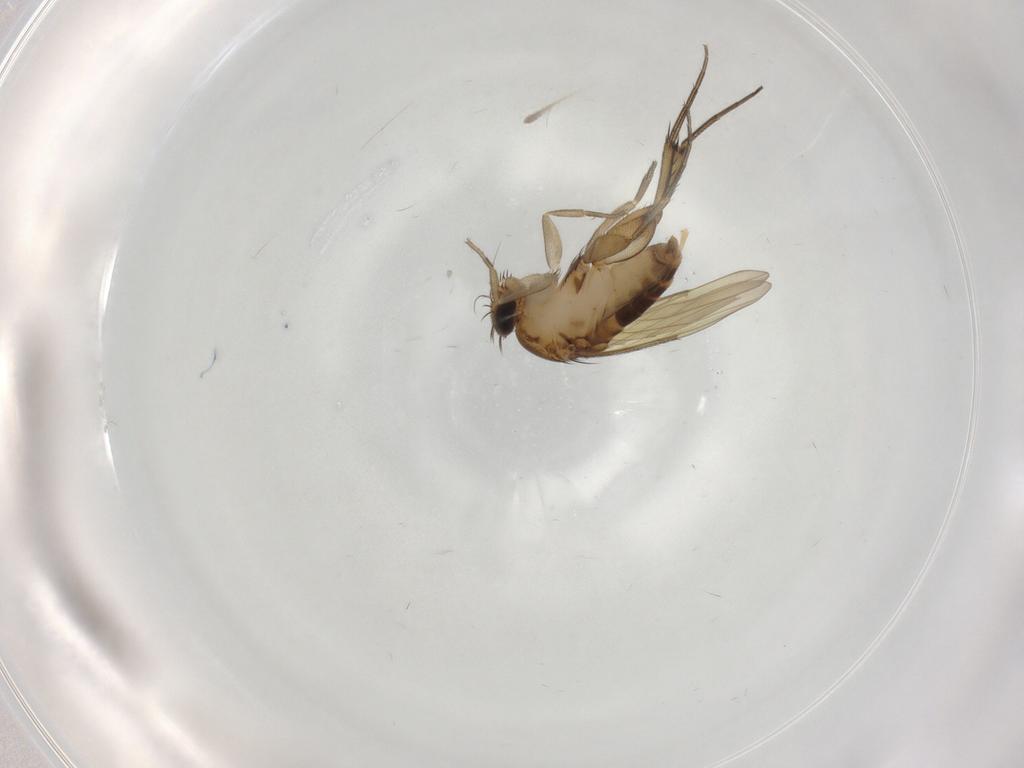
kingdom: Animalia
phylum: Arthropoda
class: Insecta
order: Diptera
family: Phoridae
